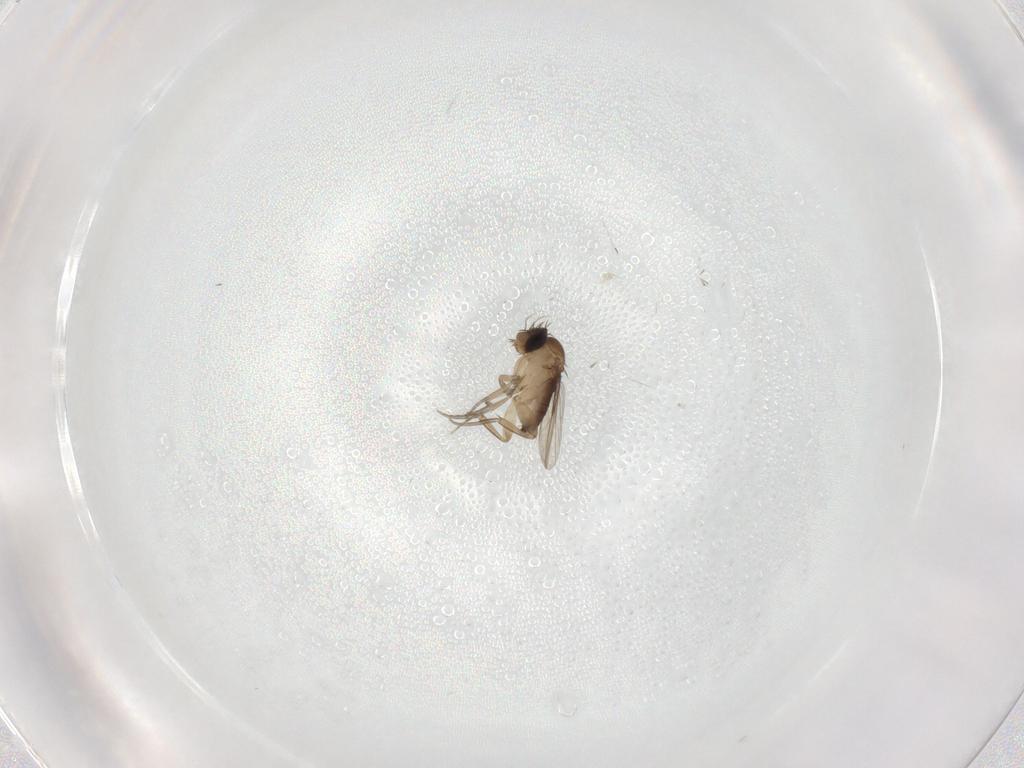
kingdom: Animalia
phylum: Arthropoda
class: Insecta
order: Diptera
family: Phoridae
